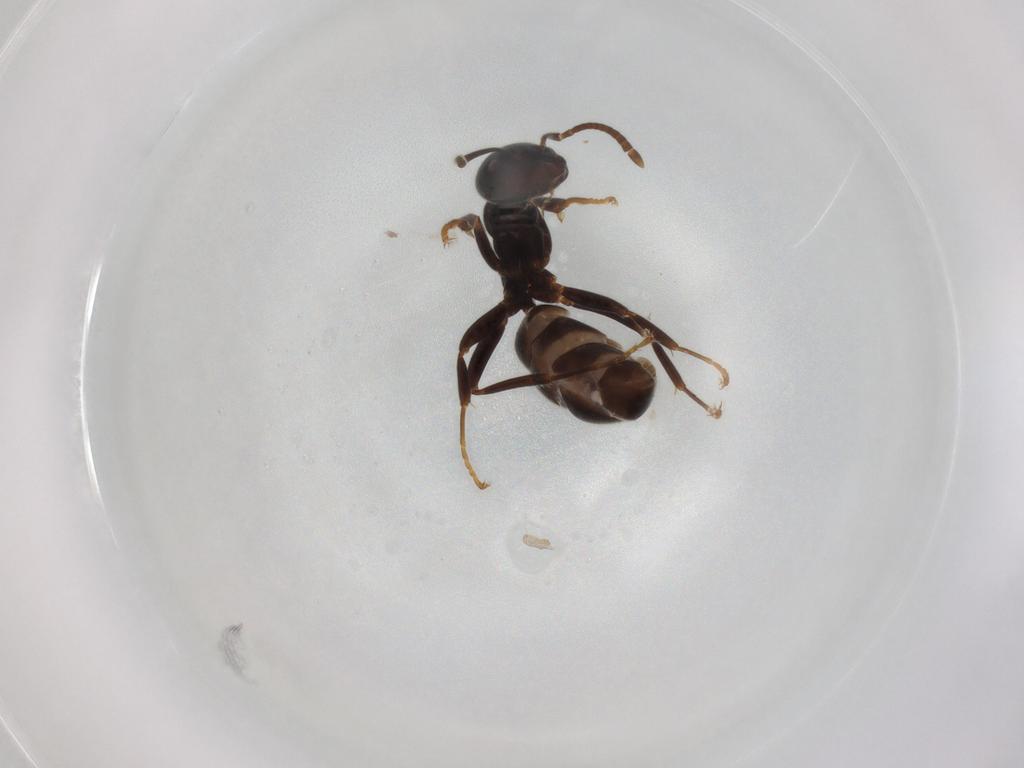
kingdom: Animalia
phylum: Arthropoda
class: Insecta
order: Hymenoptera
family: Formicidae
